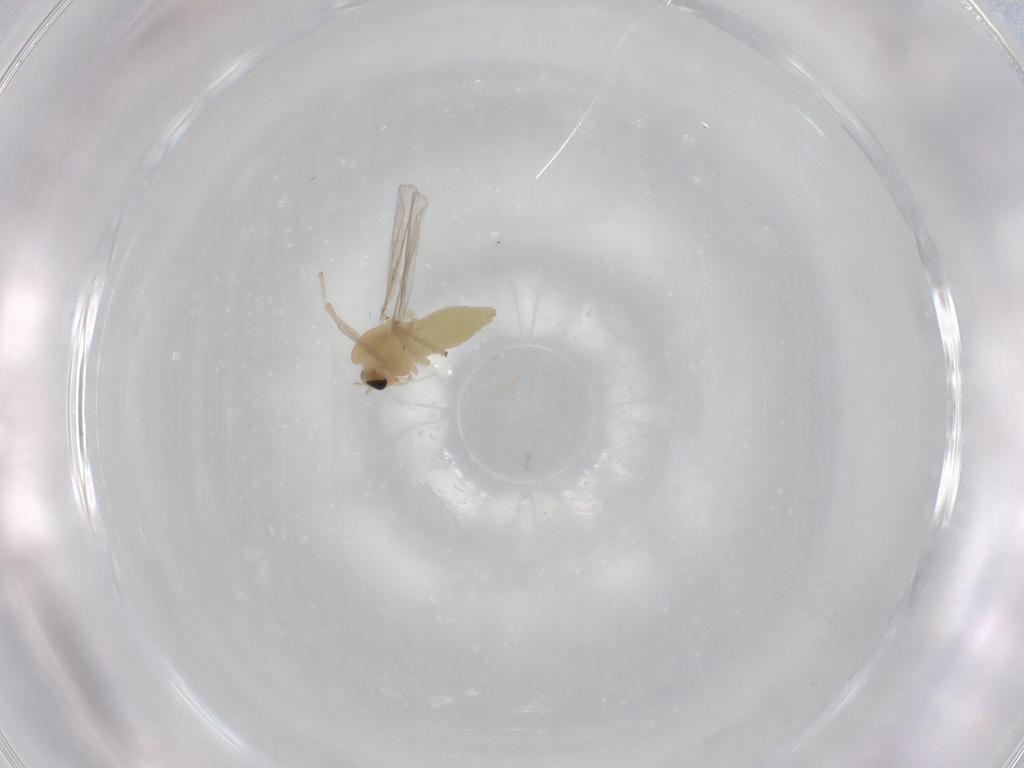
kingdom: Animalia
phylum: Arthropoda
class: Insecta
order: Diptera
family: Chironomidae
